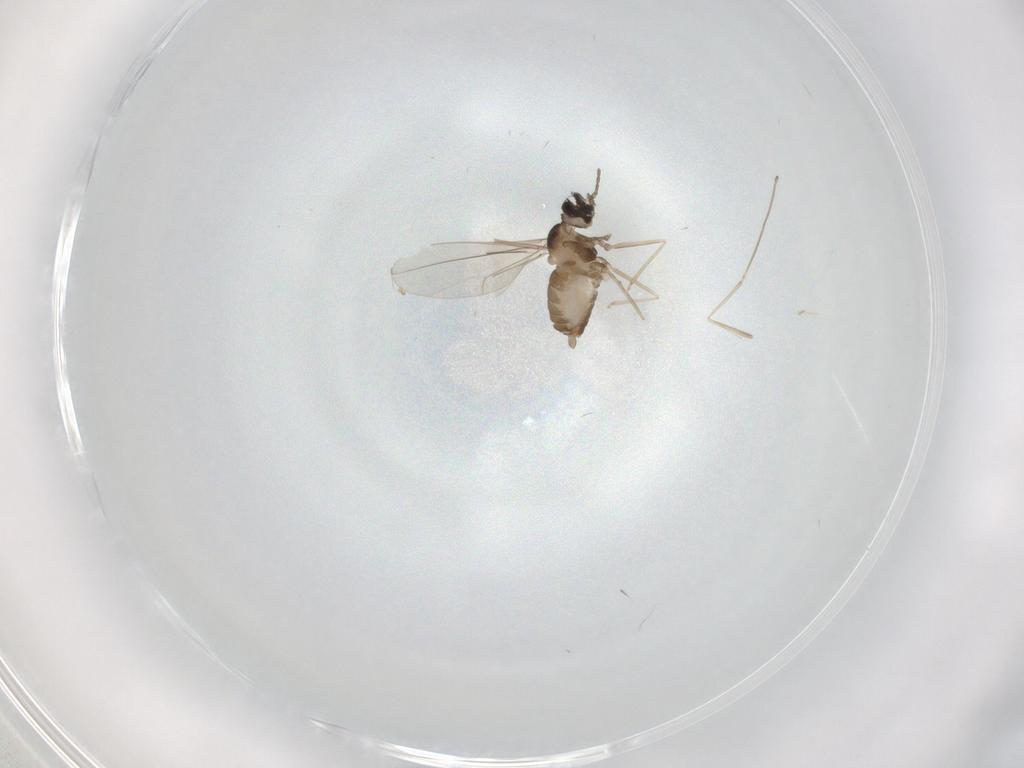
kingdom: Animalia
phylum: Arthropoda
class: Insecta
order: Diptera
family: Cecidomyiidae
